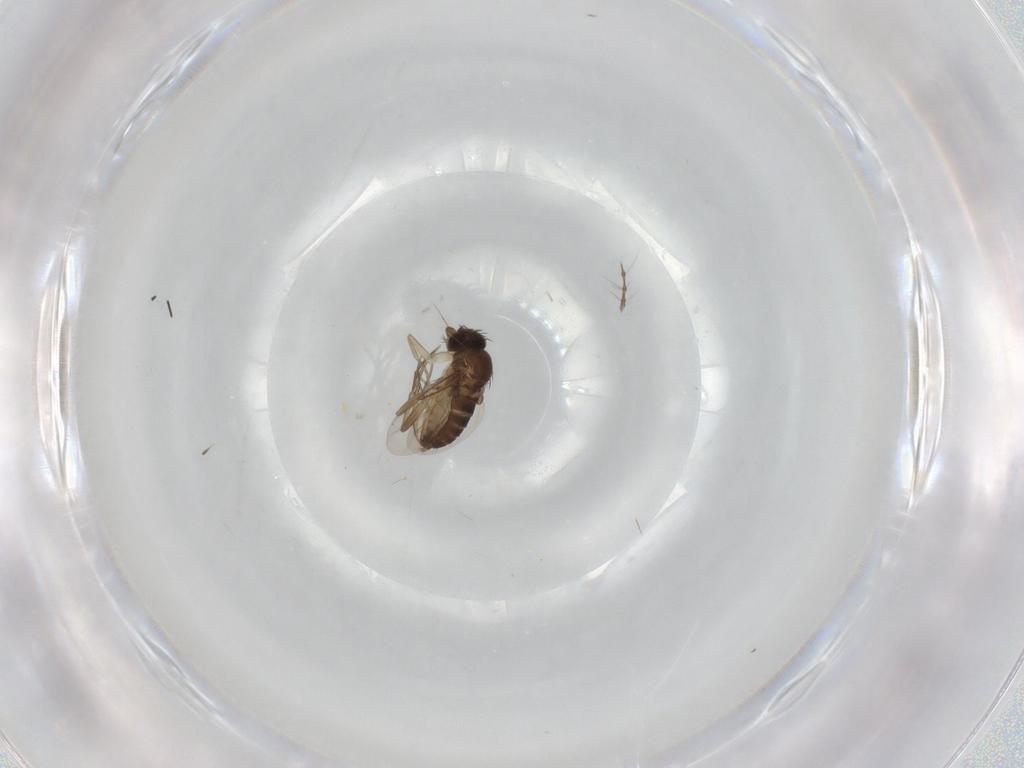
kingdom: Animalia
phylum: Arthropoda
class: Insecta
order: Diptera
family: Phoridae
